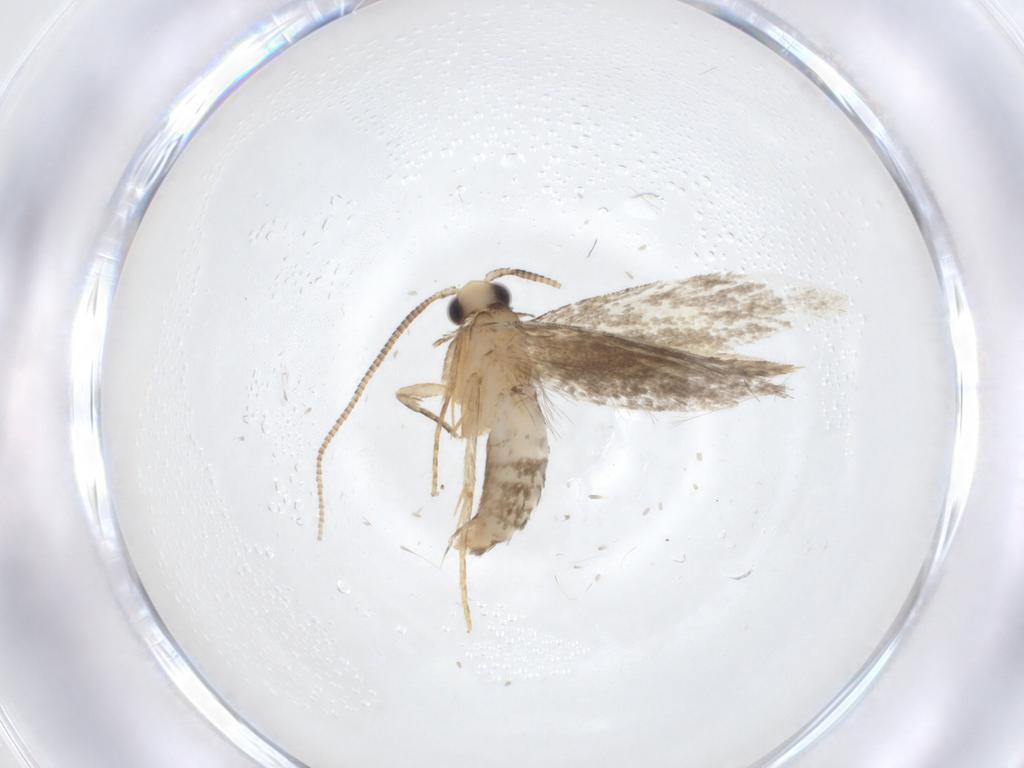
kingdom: Animalia
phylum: Arthropoda
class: Insecta
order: Lepidoptera
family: Tineidae
